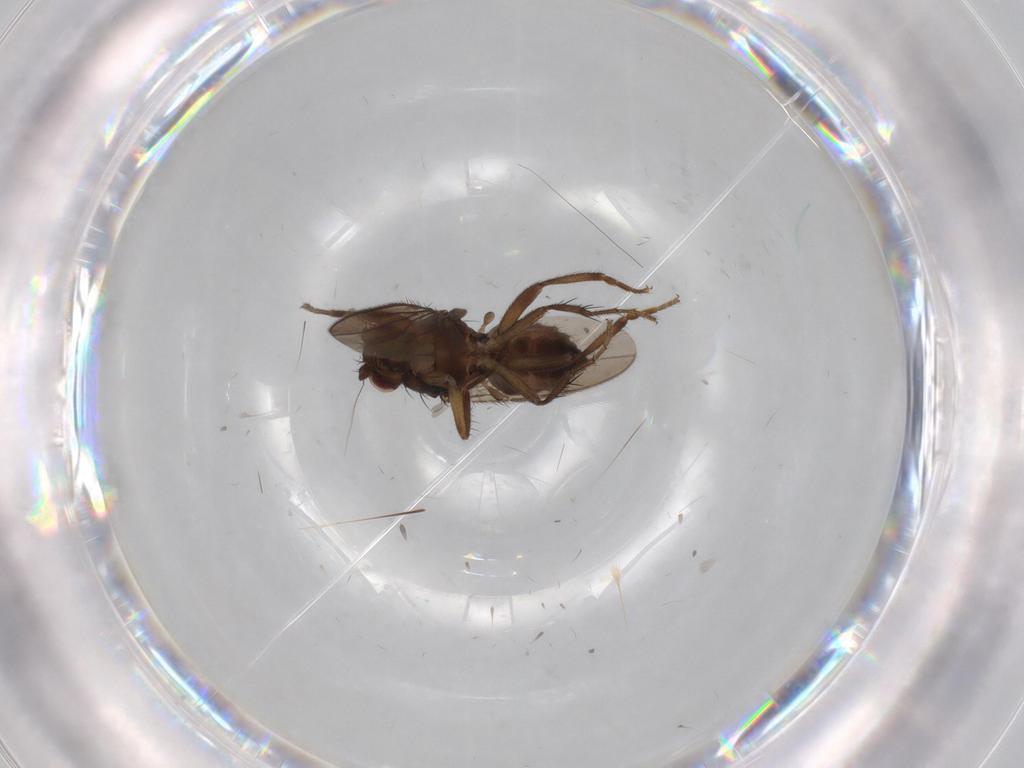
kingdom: Animalia
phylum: Arthropoda
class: Insecta
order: Diptera
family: Sphaeroceridae
